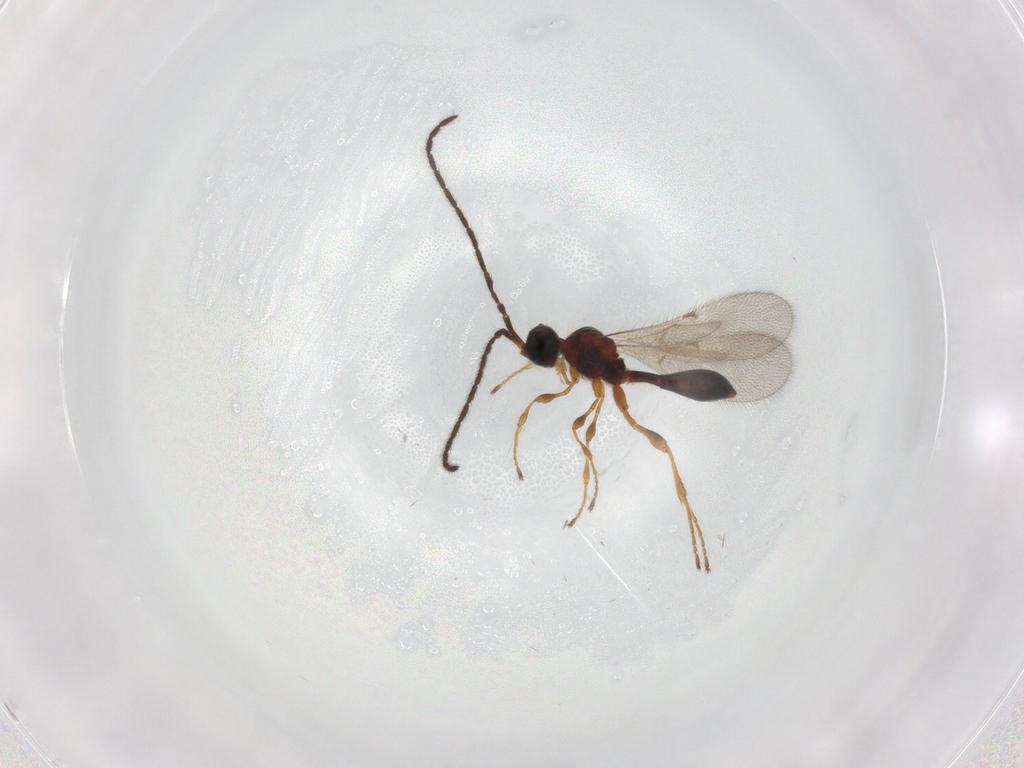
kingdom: Animalia
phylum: Arthropoda
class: Insecta
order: Hymenoptera
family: Diapriidae
